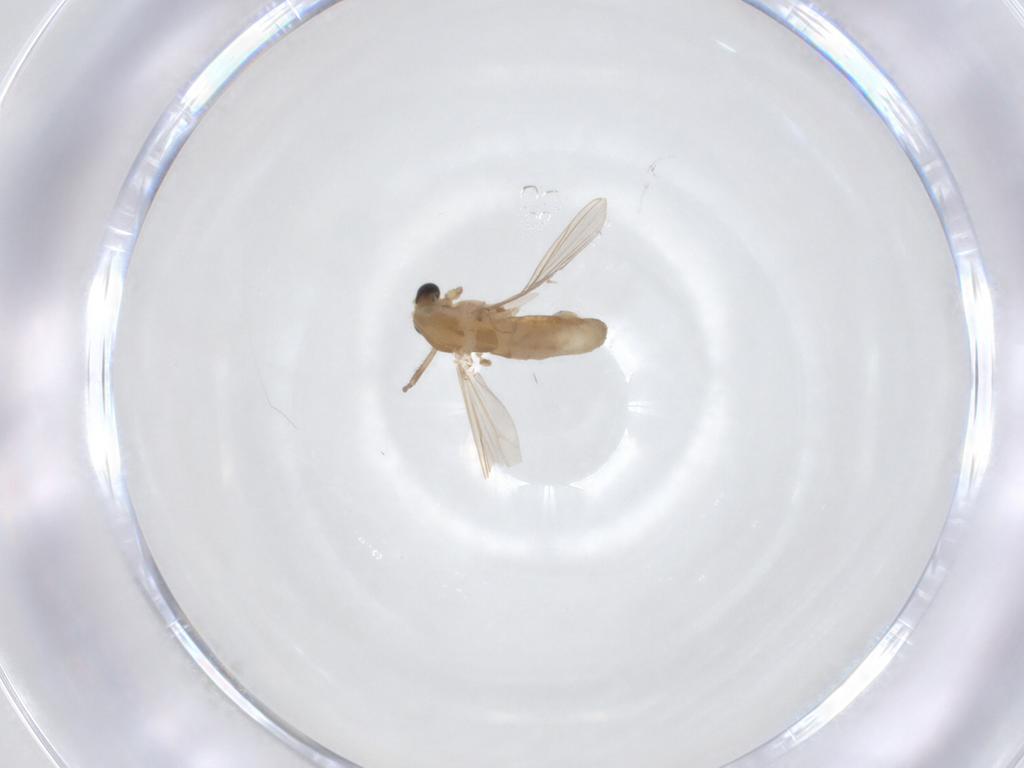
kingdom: Animalia
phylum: Arthropoda
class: Insecta
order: Diptera
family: Chironomidae
